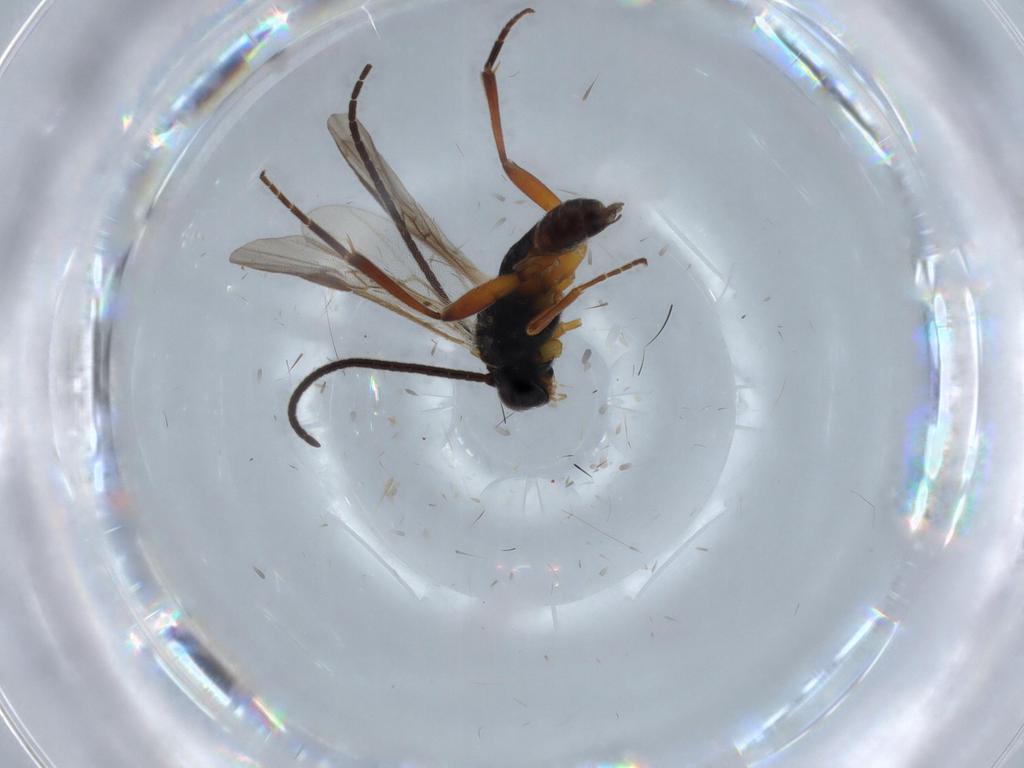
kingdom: Animalia
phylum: Arthropoda
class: Insecta
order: Hymenoptera
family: Braconidae
